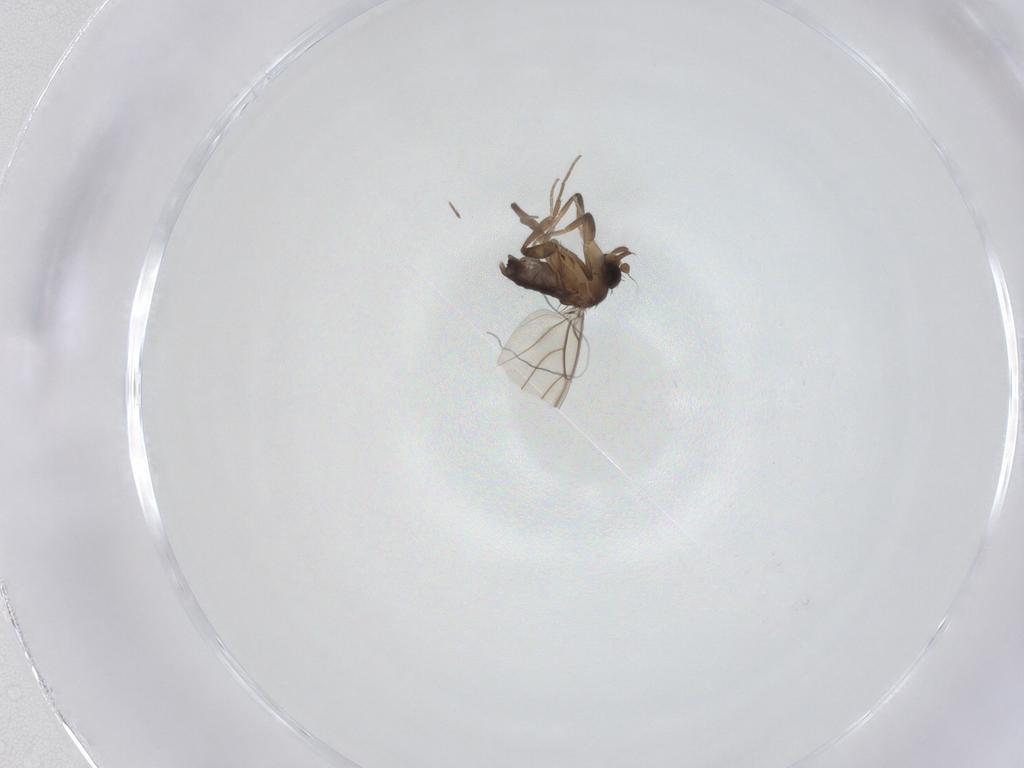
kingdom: Animalia
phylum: Arthropoda
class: Insecta
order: Diptera
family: Phoridae
